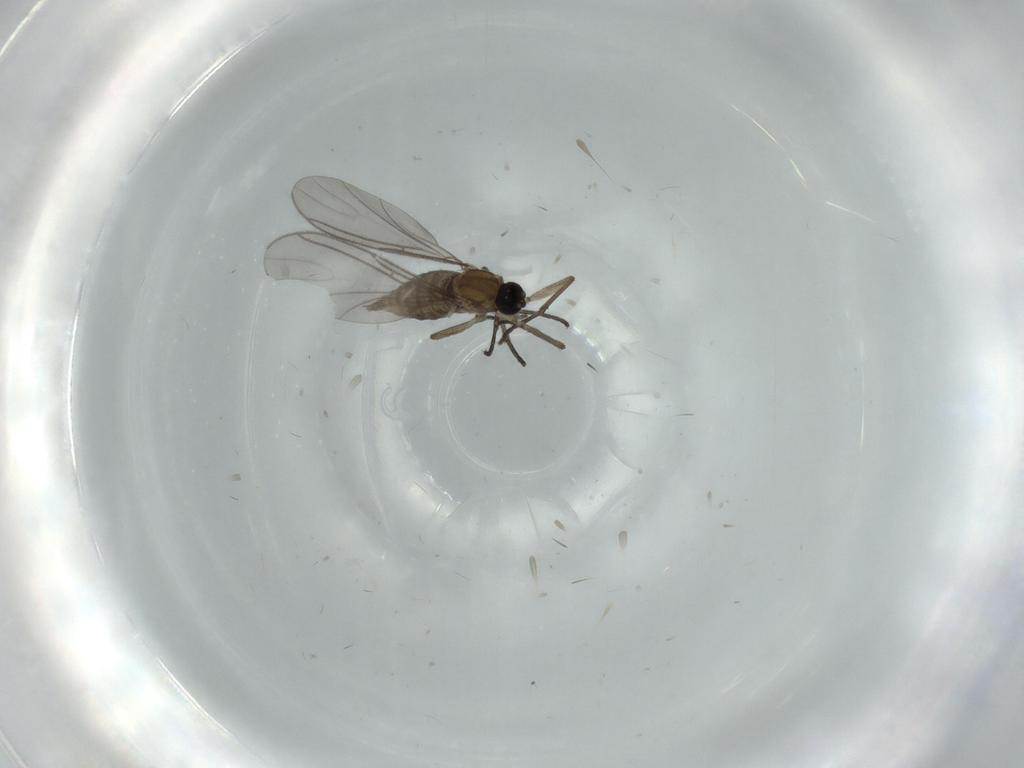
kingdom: Animalia
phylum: Arthropoda
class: Insecta
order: Diptera
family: Sciaridae
